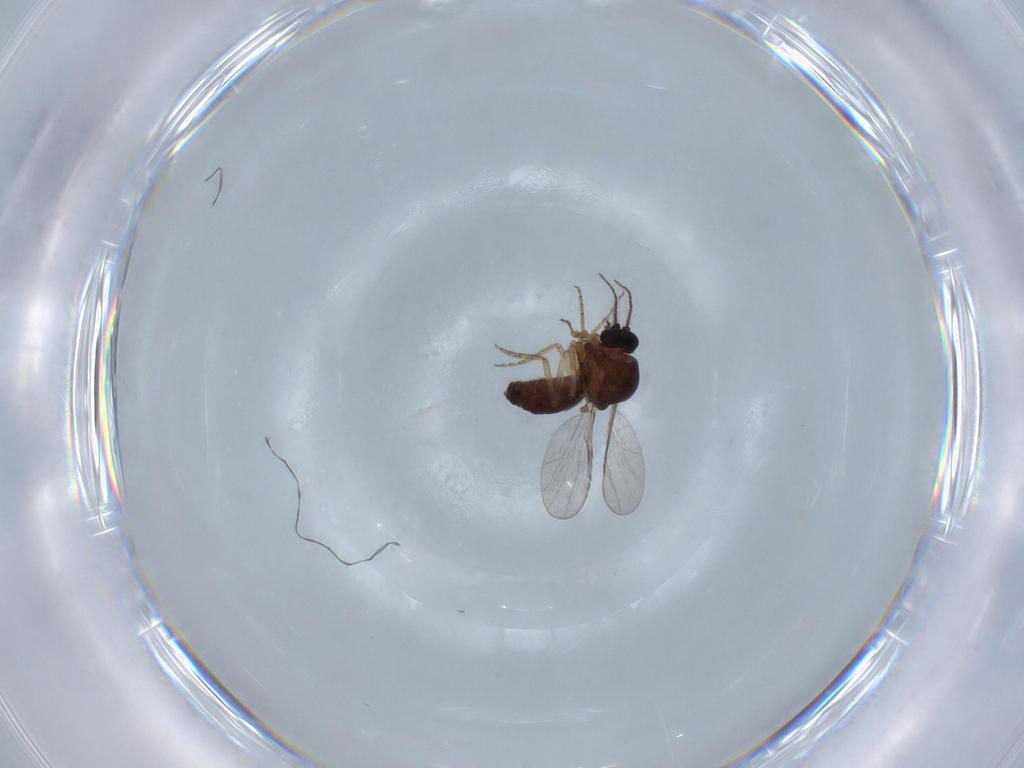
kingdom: Animalia
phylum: Arthropoda
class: Insecta
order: Diptera
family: Ceratopogonidae
